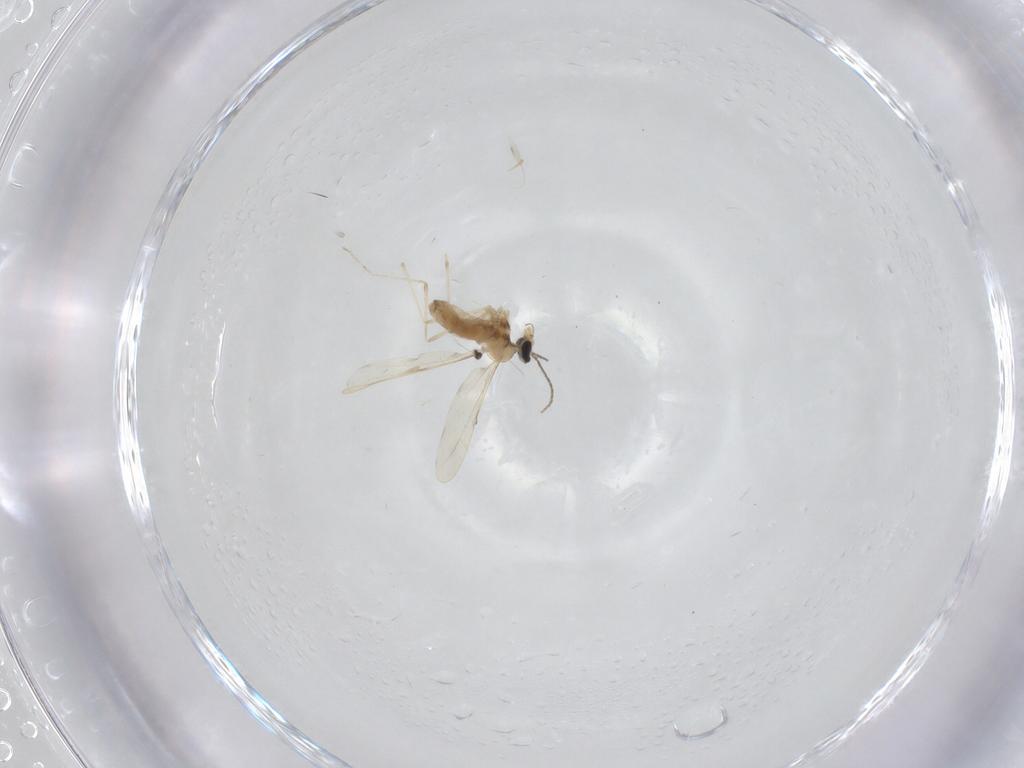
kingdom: Animalia
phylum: Arthropoda
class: Insecta
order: Diptera
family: Cecidomyiidae
